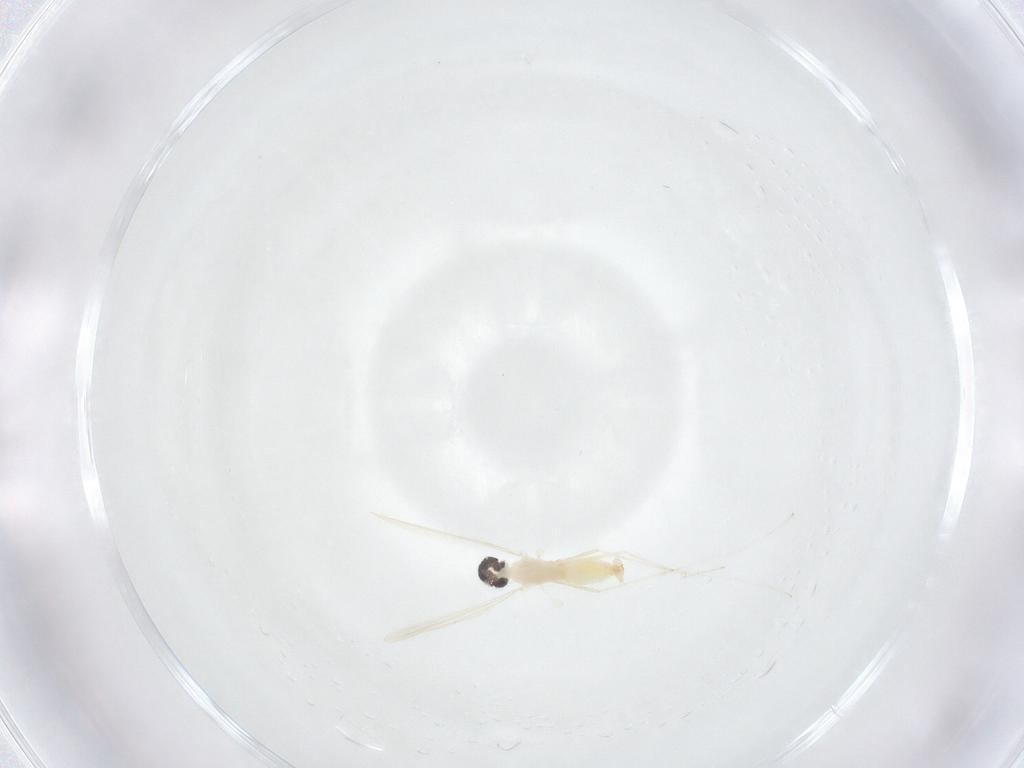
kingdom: Animalia
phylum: Arthropoda
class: Insecta
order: Diptera
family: Cecidomyiidae
